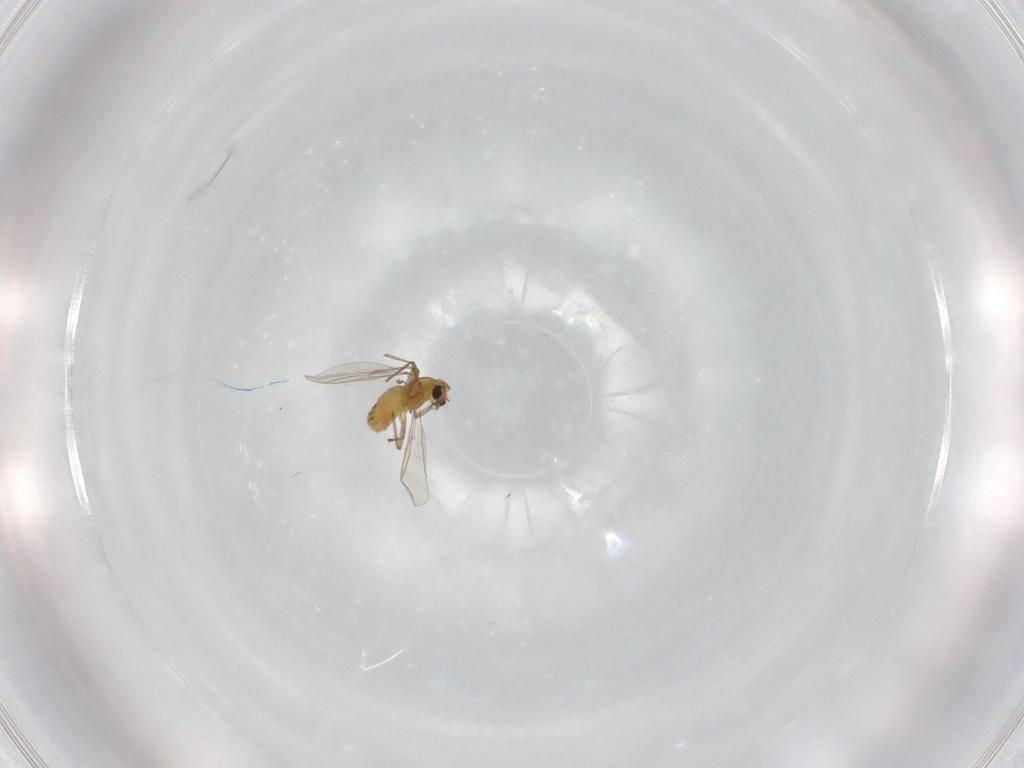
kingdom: Animalia
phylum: Arthropoda
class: Insecta
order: Diptera
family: Chironomidae
